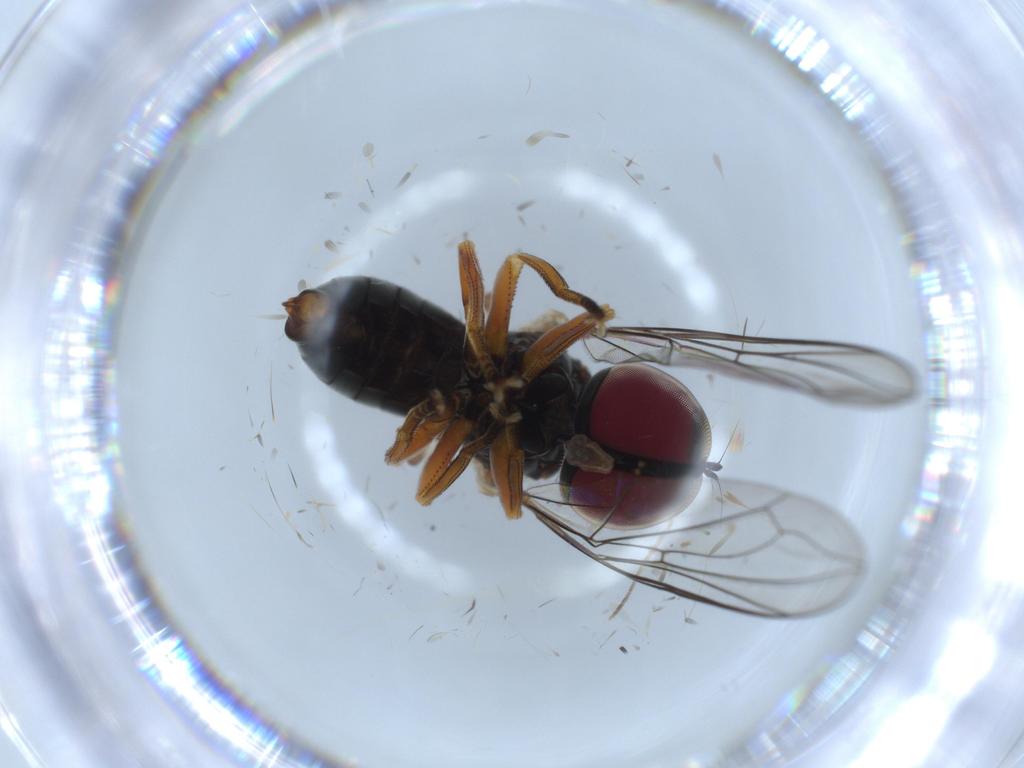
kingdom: Animalia
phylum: Arthropoda
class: Insecta
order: Diptera
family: Pipunculidae
